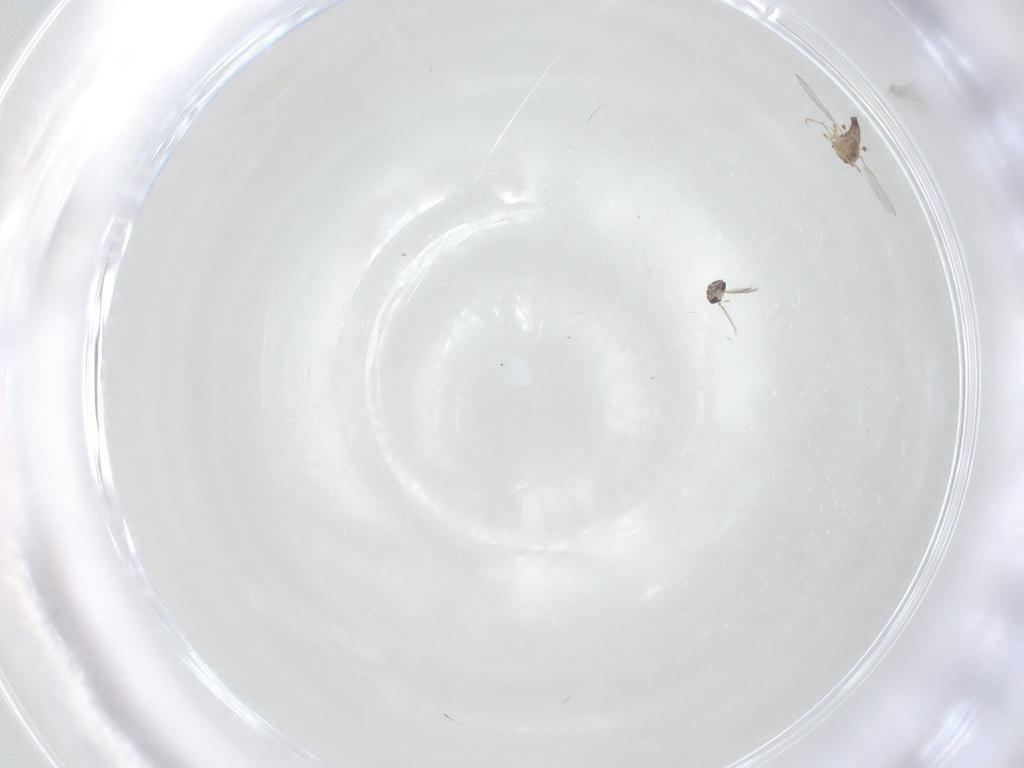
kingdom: Animalia
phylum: Arthropoda
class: Insecta
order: Diptera
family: Ceratopogonidae
